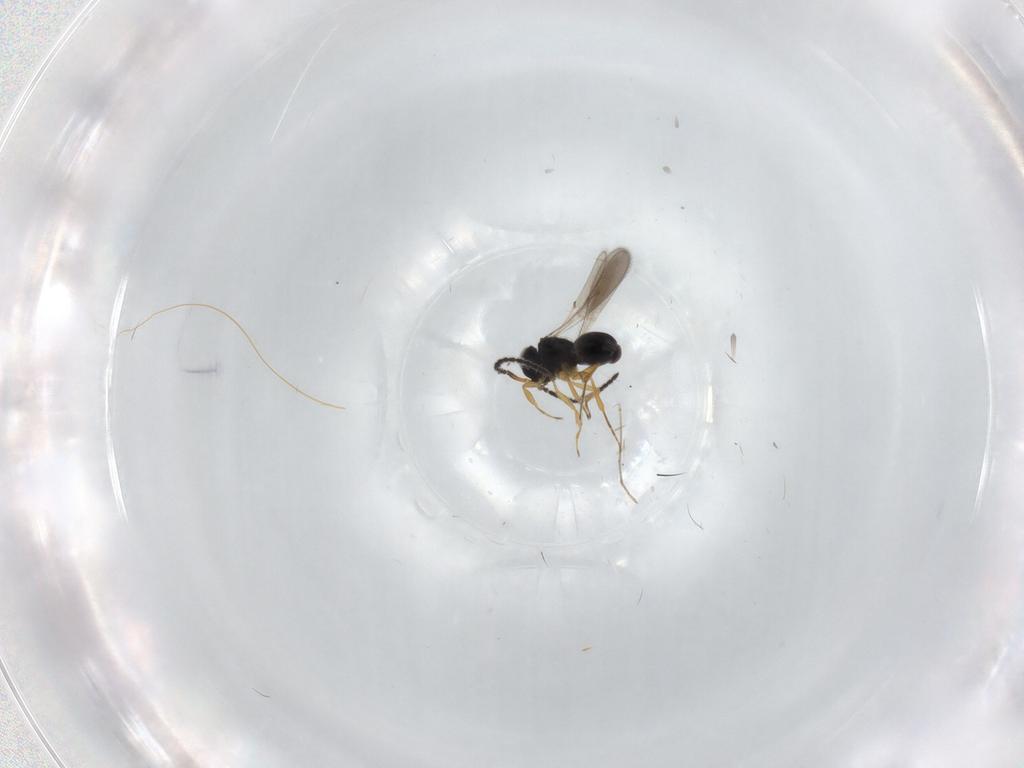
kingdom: Animalia
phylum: Arthropoda
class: Insecta
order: Hymenoptera
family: Scelionidae
